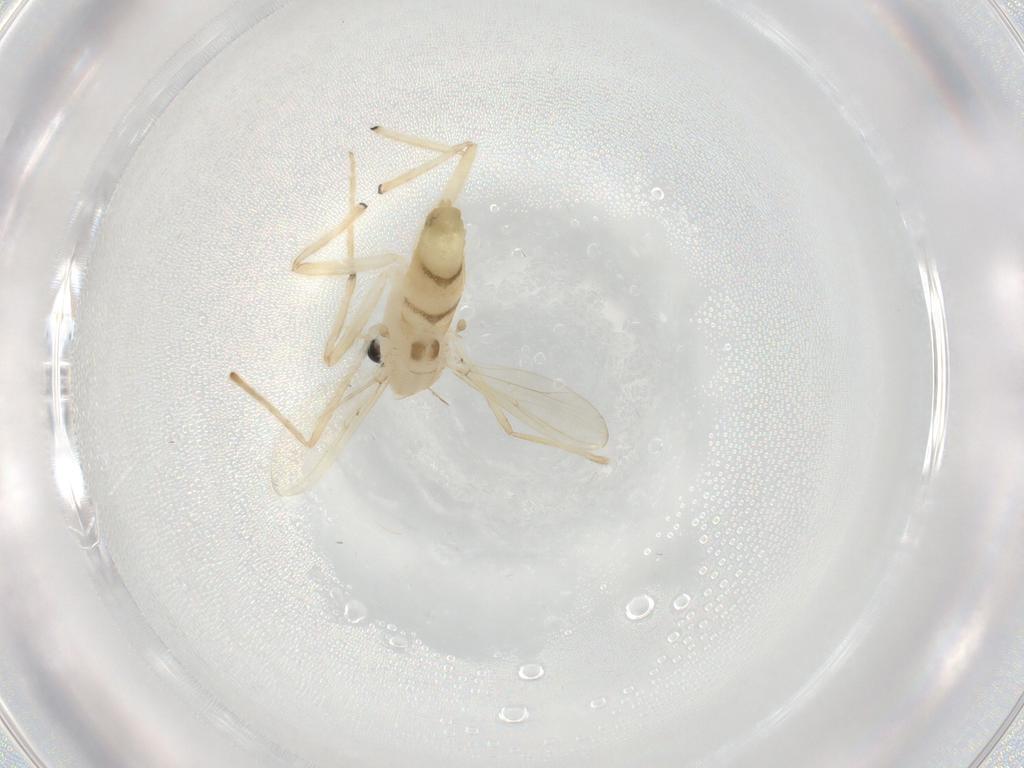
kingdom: Animalia
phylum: Arthropoda
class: Insecta
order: Diptera
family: Chironomidae
